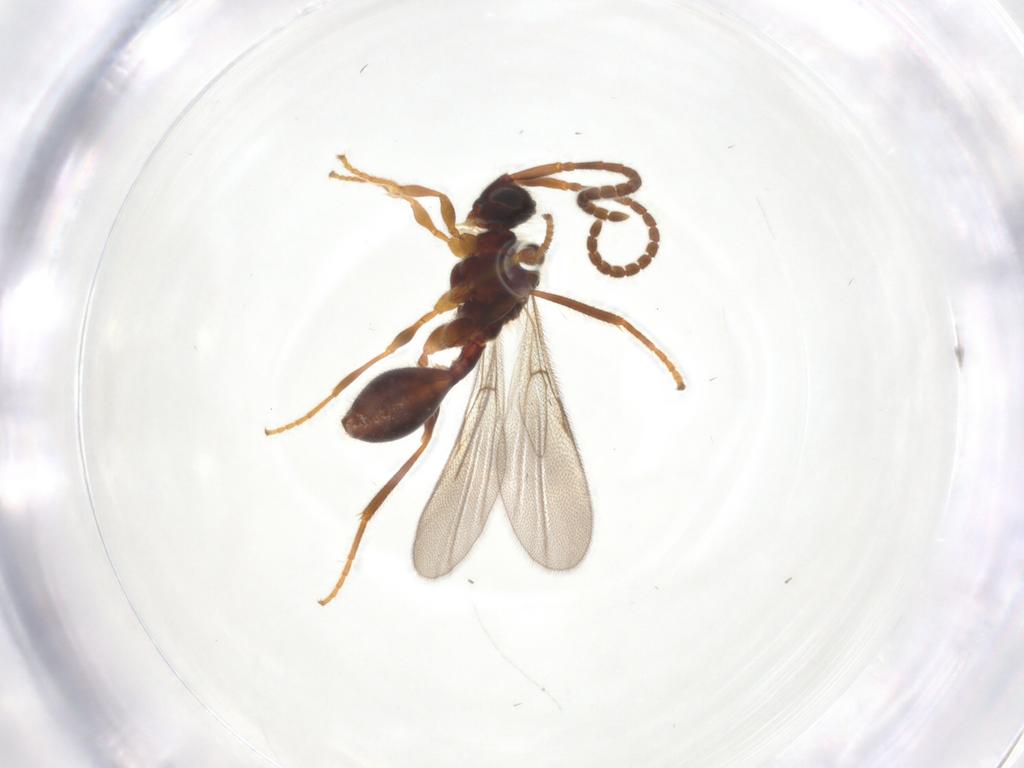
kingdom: Animalia
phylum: Arthropoda
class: Insecta
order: Hymenoptera
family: Diapriidae
